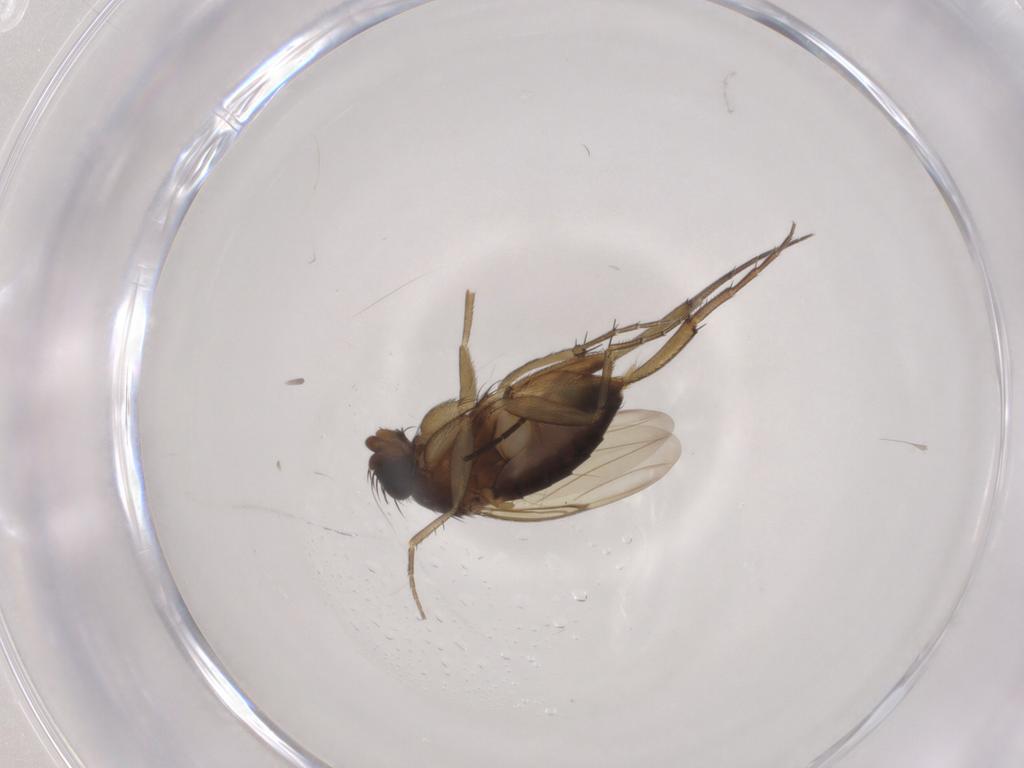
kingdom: Animalia
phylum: Arthropoda
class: Insecta
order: Diptera
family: Phoridae
